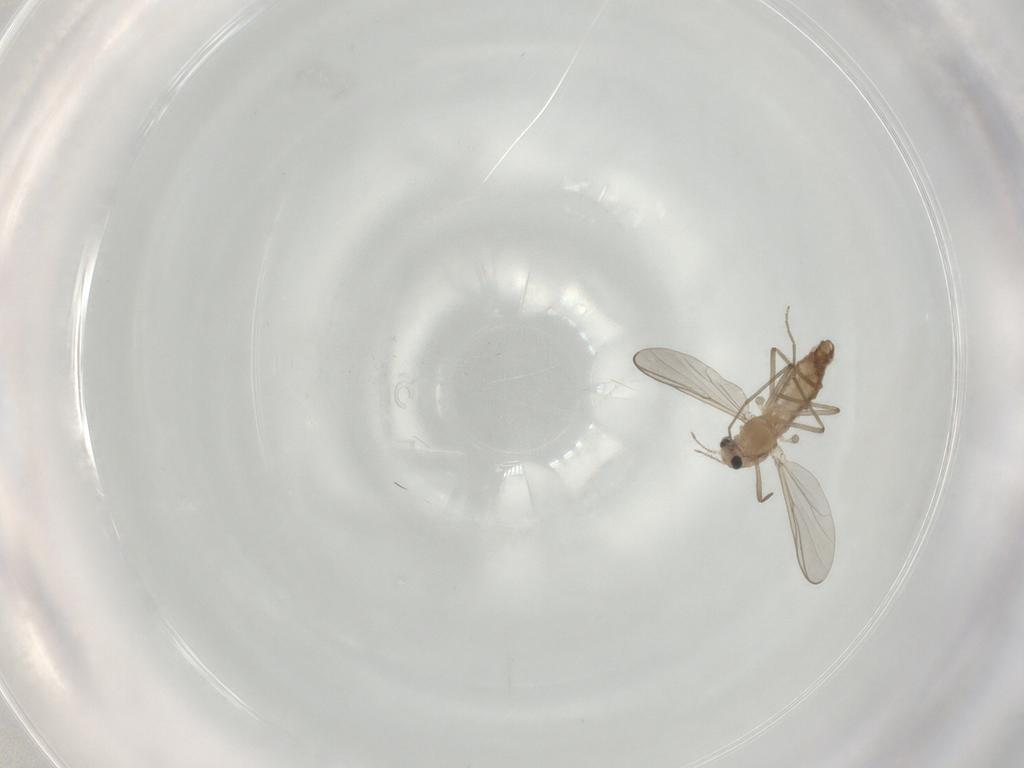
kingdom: Animalia
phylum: Arthropoda
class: Insecta
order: Diptera
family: Chironomidae
